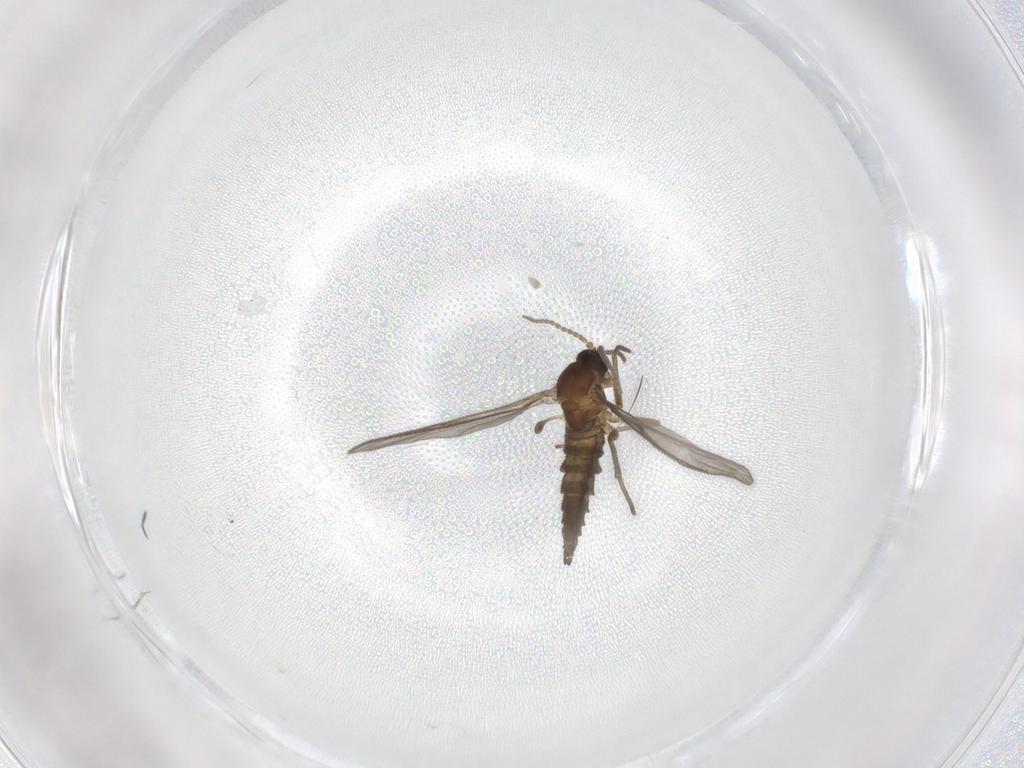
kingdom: Animalia
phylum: Arthropoda
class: Insecta
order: Diptera
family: Sciaridae
